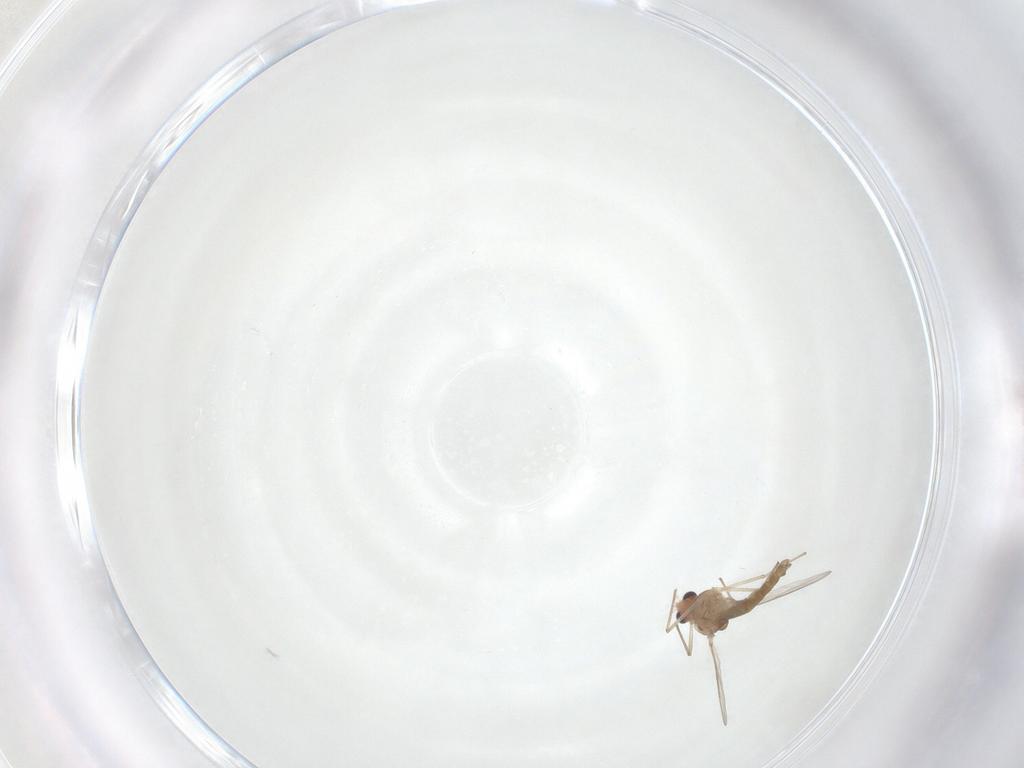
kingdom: Animalia
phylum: Arthropoda
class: Insecta
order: Diptera
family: Chironomidae
